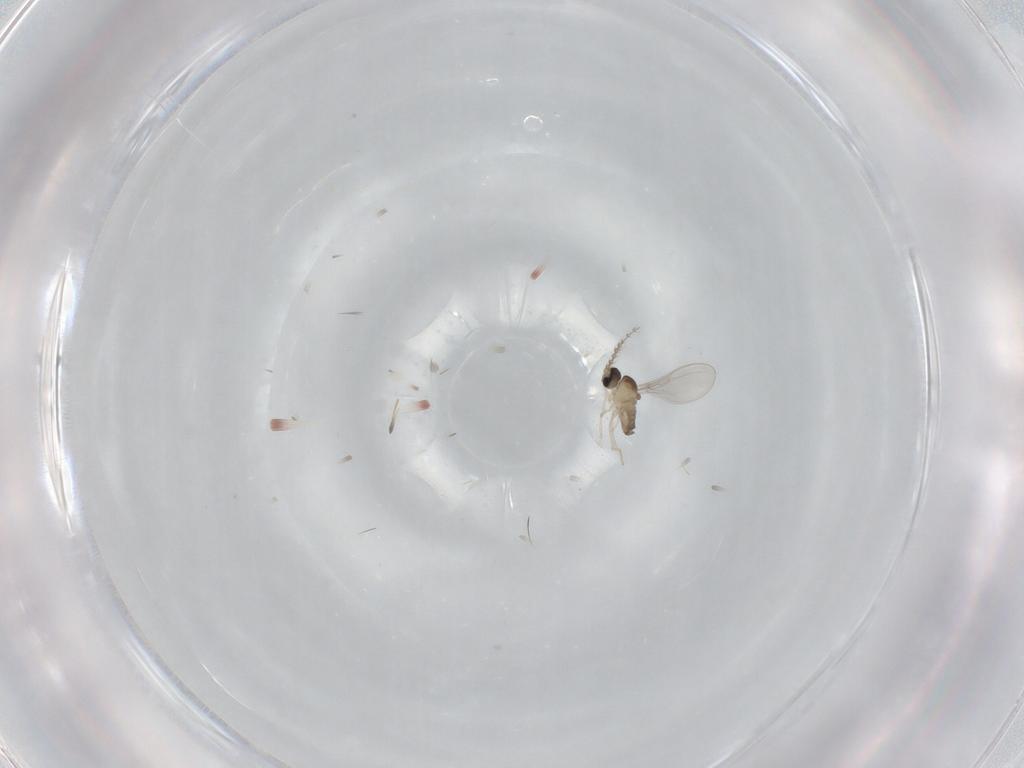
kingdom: Animalia
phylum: Arthropoda
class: Insecta
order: Diptera
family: Cecidomyiidae
